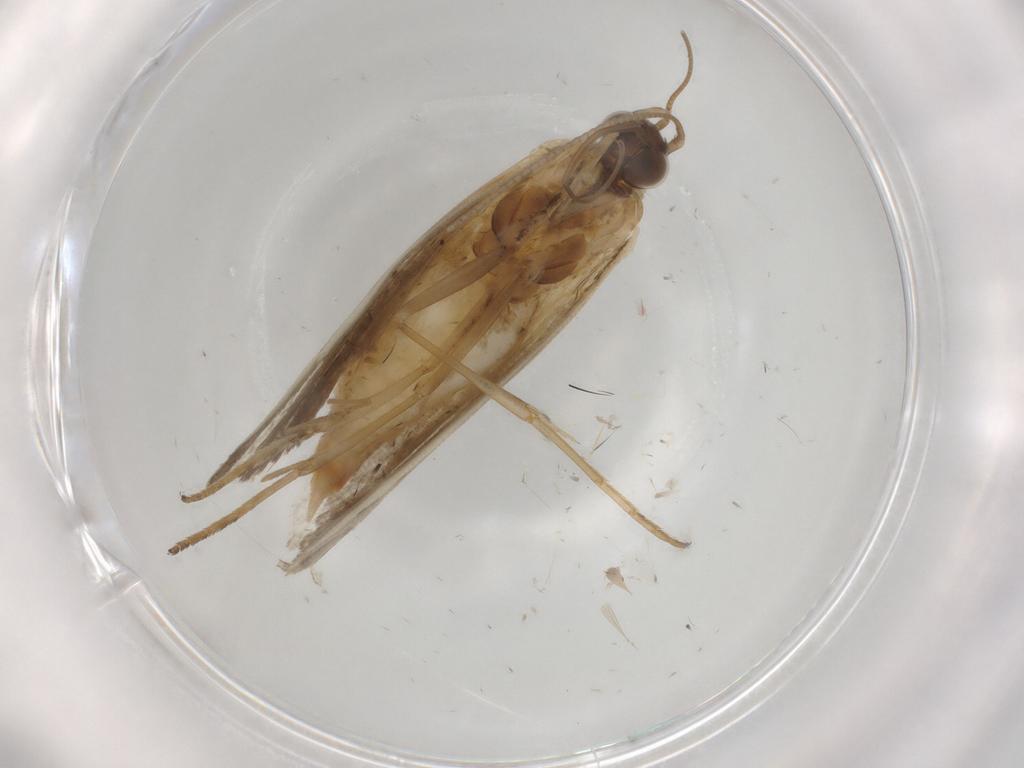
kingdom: Animalia
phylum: Arthropoda
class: Insecta
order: Lepidoptera
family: Noctuidae
